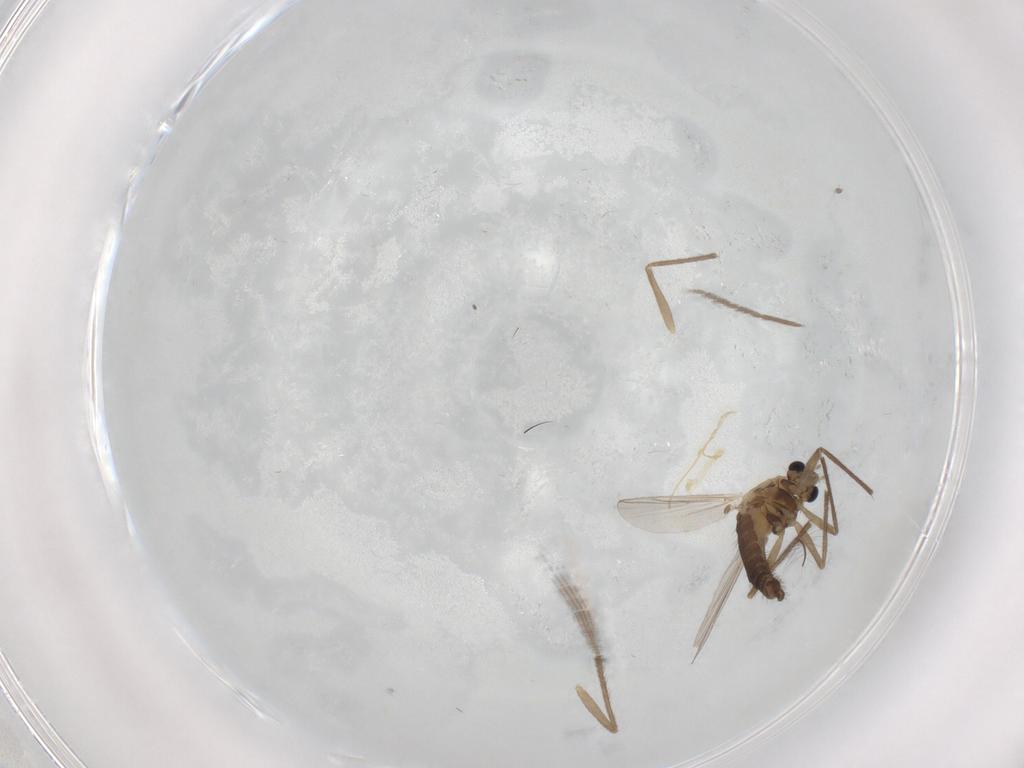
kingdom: Animalia
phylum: Arthropoda
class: Insecta
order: Diptera
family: Chironomidae
